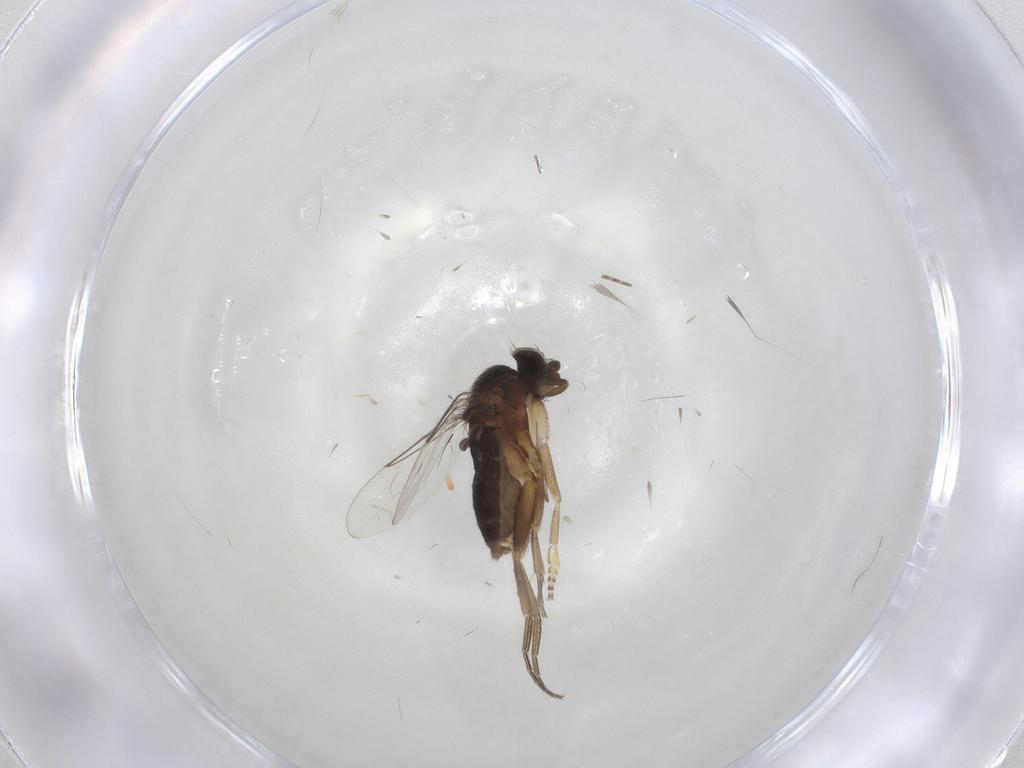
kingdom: Animalia
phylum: Arthropoda
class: Insecta
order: Diptera
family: Phoridae
